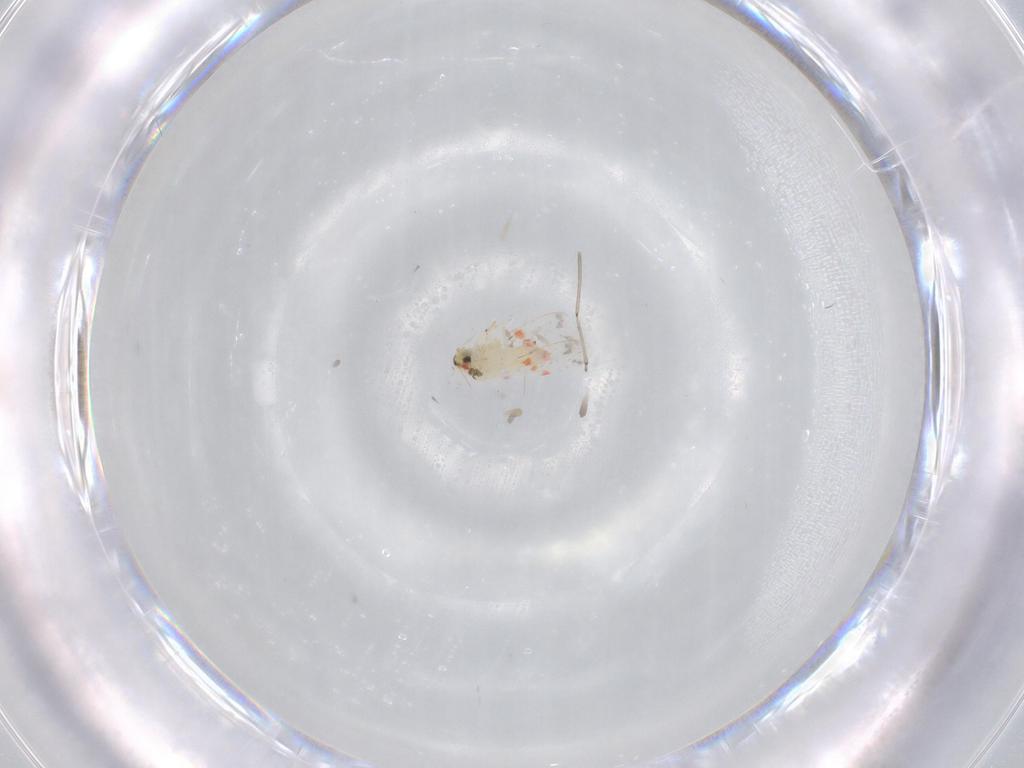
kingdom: Animalia
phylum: Arthropoda
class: Insecta
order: Hemiptera
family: Aleyrodidae
